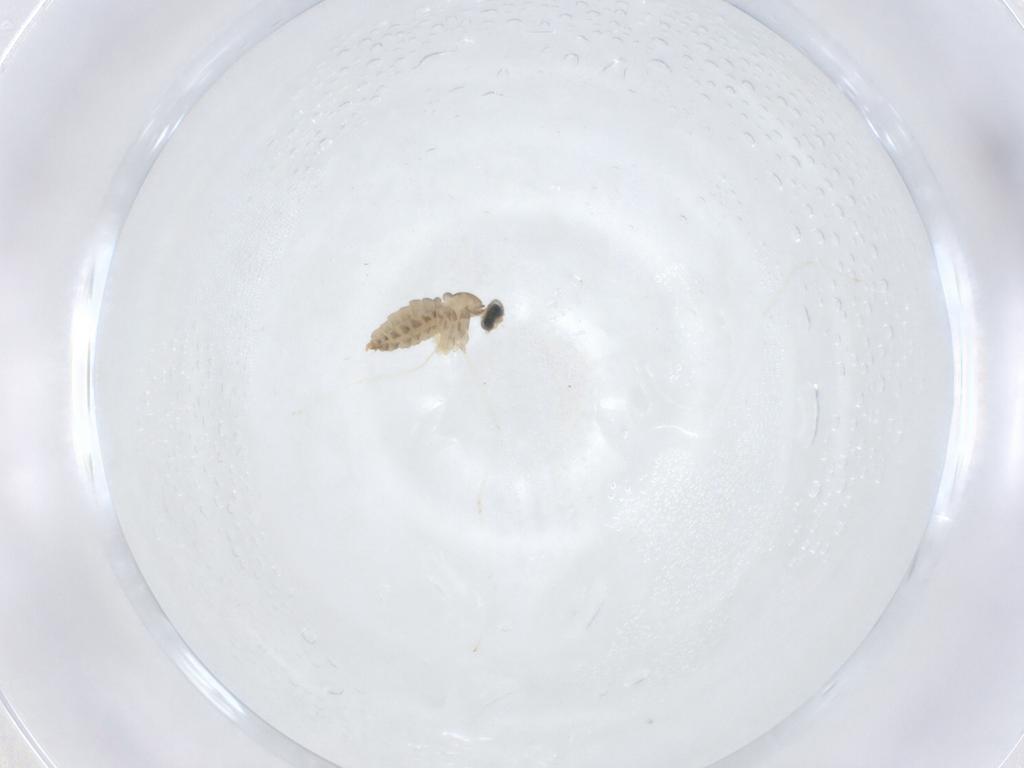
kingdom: Animalia
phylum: Arthropoda
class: Insecta
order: Diptera
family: Cecidomyiidae
